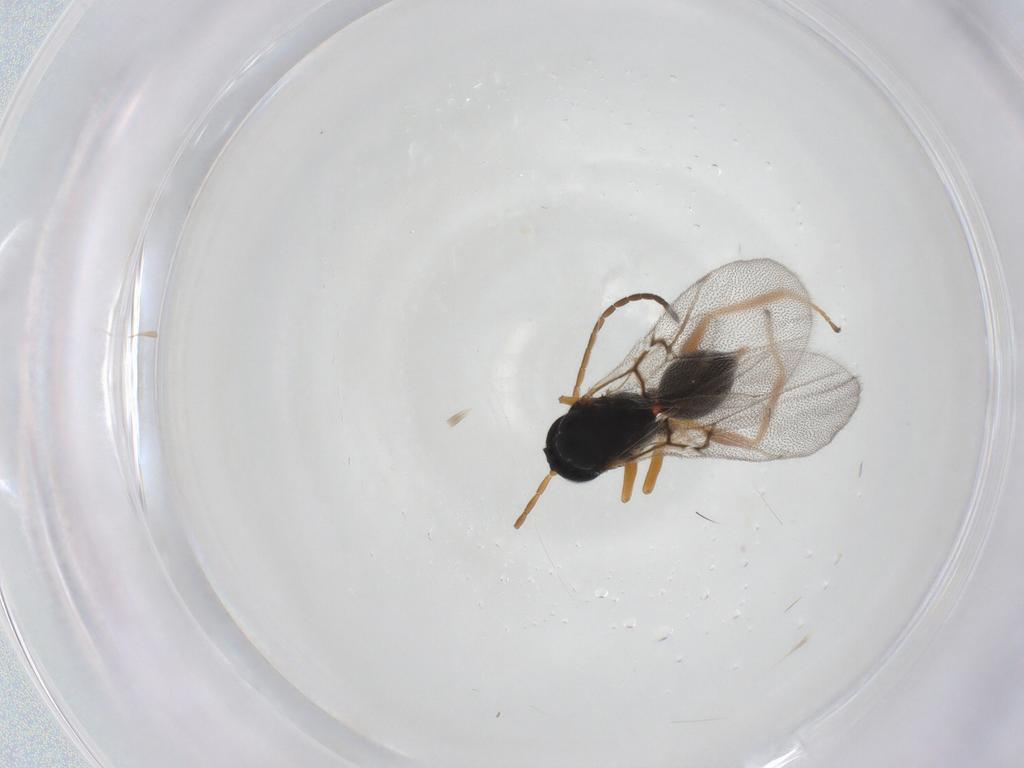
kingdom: Animalia
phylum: Arthropoda
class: Insecta
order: Hymenoptera
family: Cynipidae
